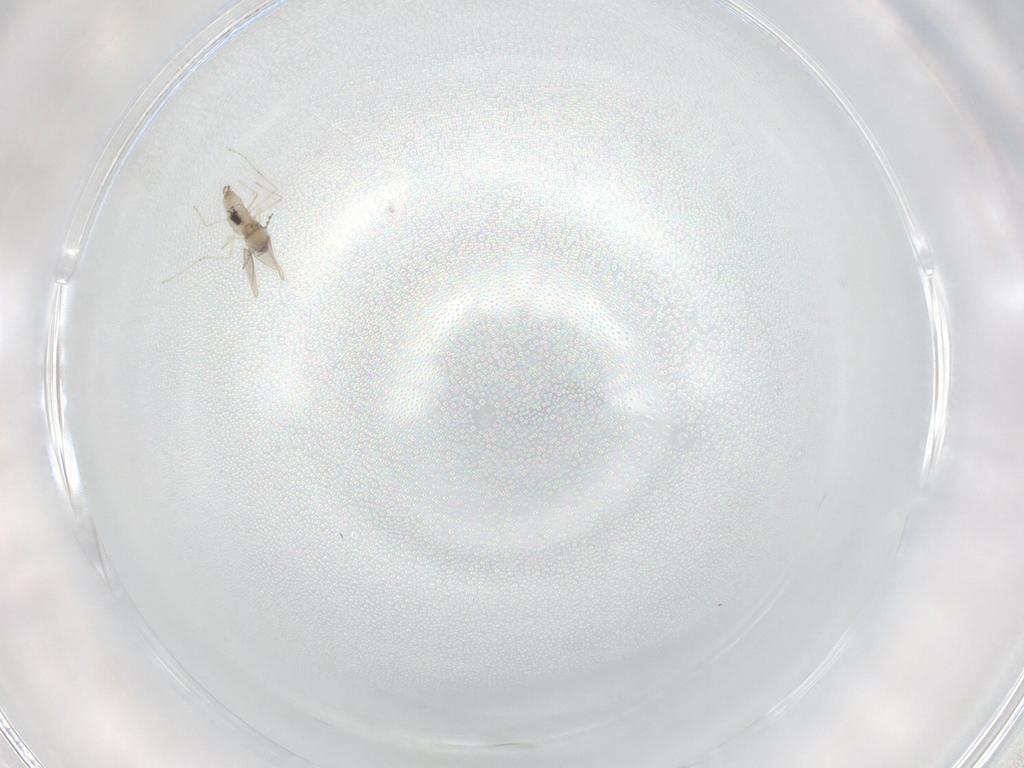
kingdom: Animalia
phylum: Arthropoda
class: Insecta
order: Diptera
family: Cecidomyiidae
